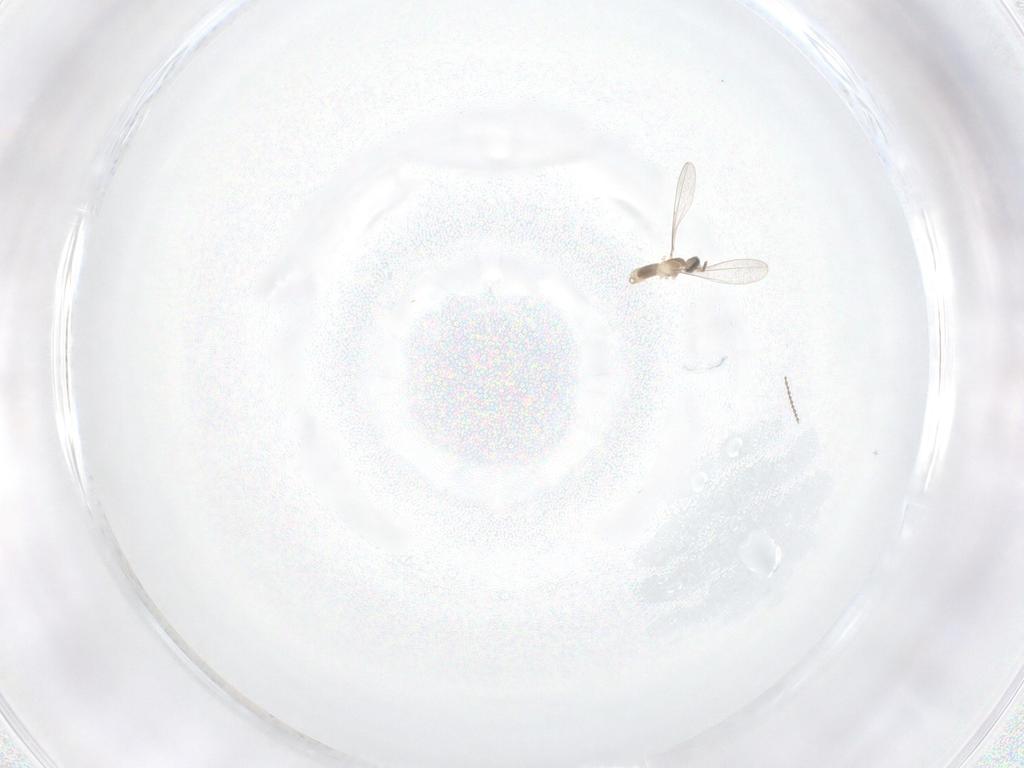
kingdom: Animalia
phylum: Arthropoda
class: Insecta
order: Diptera
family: Cecidomyiidae
